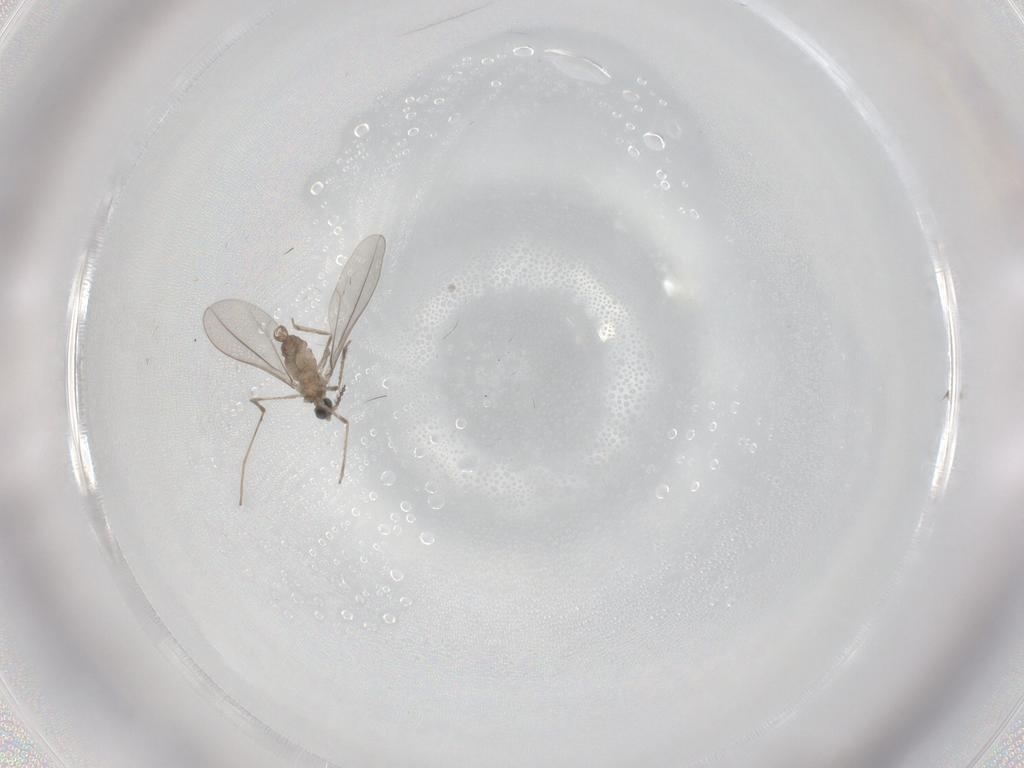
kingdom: Animalia
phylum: Arthropoda
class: Insecta
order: Diptera
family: Cecidomyiidae
